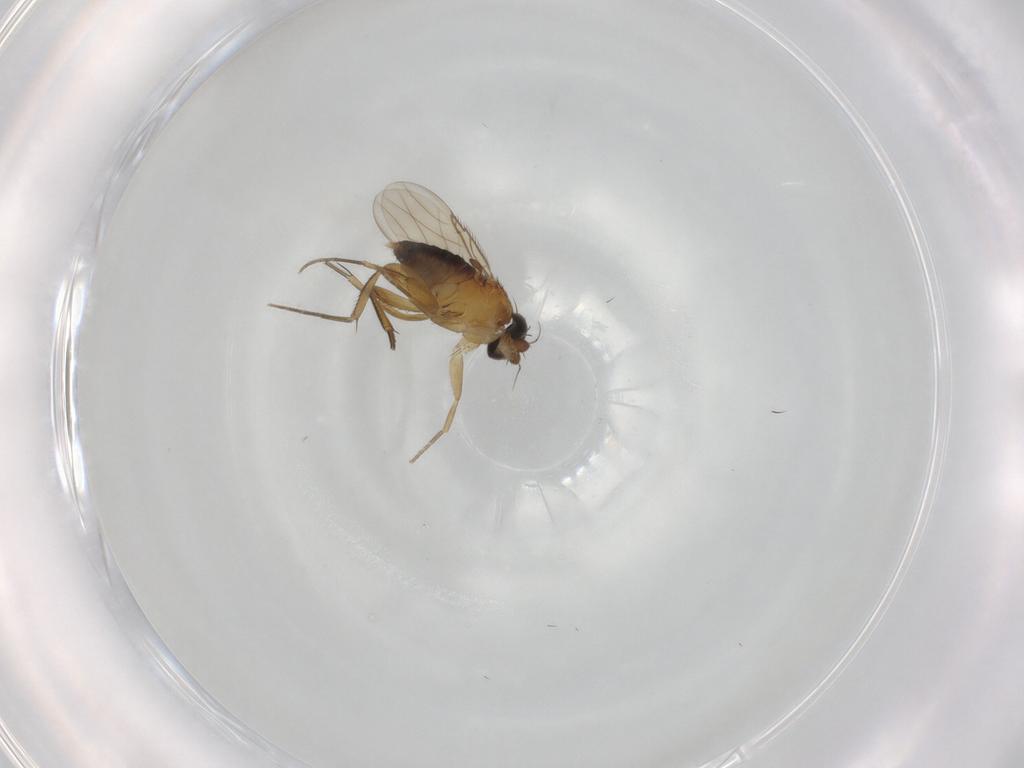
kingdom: Animalia
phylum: Arthropoda
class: Insecta
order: Diptera
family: Phoridae
